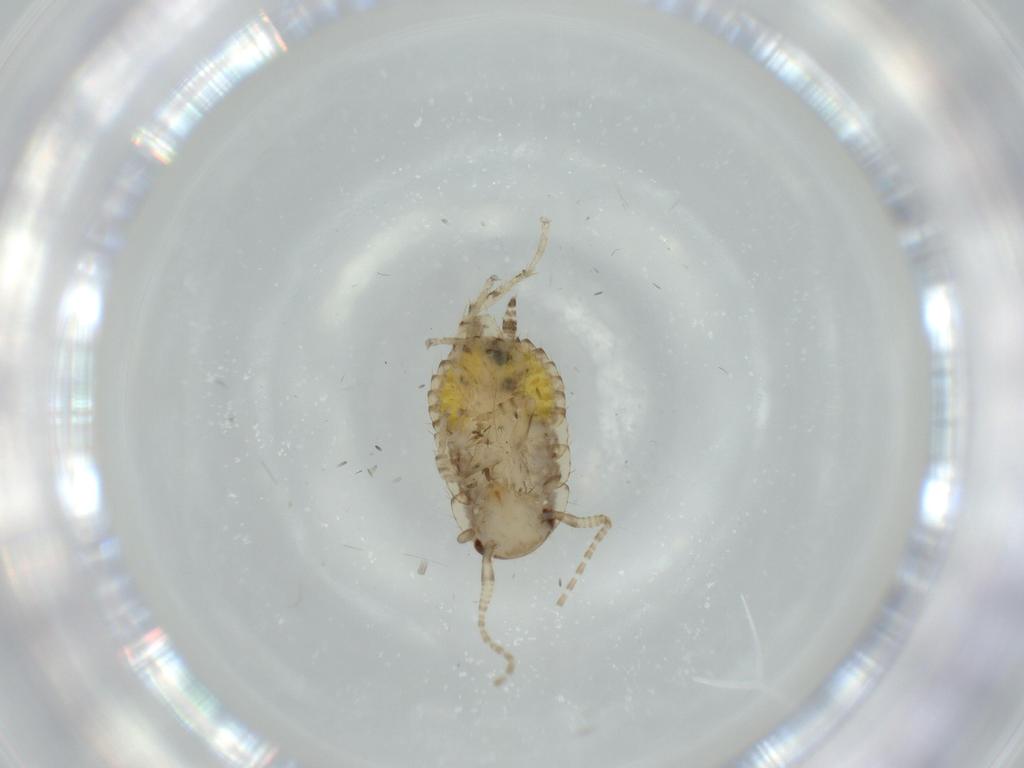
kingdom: Animalia
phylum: Arthropoda
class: Insecta
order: Blattodea
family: Ectobiidae
